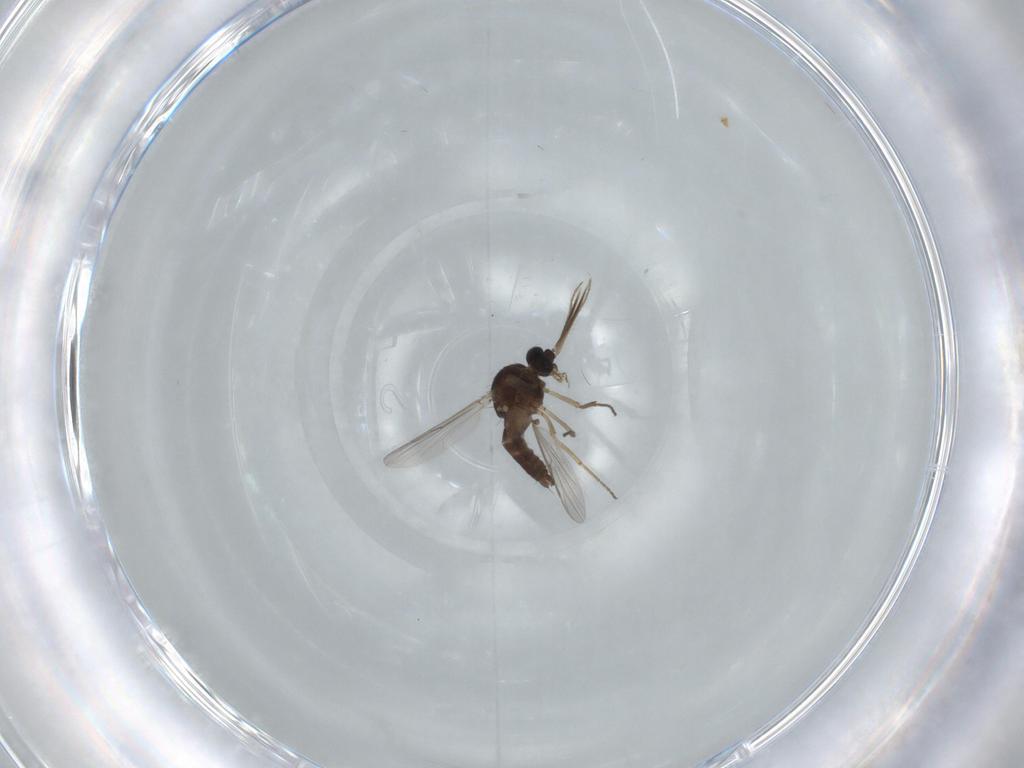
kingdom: Animalia
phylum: Arthropoda
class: Insecta
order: Diptera
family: Ceratopogonidae
